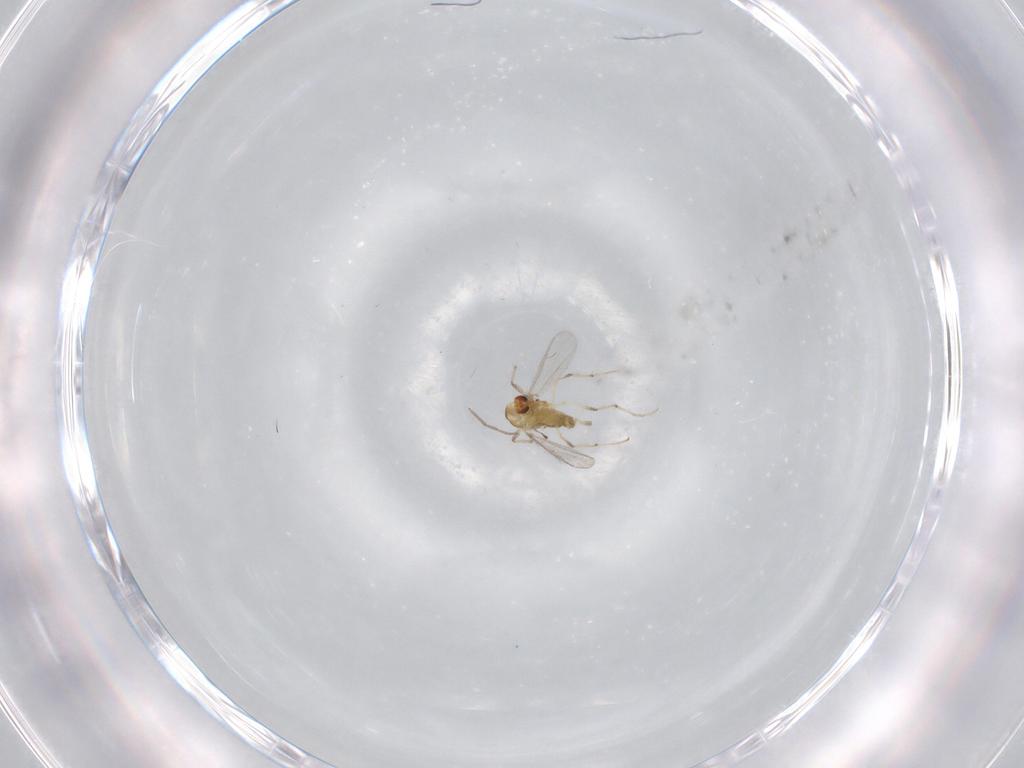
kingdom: Animalia
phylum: Arthropoda
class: Insecta
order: Diptera
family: Chironomidae
